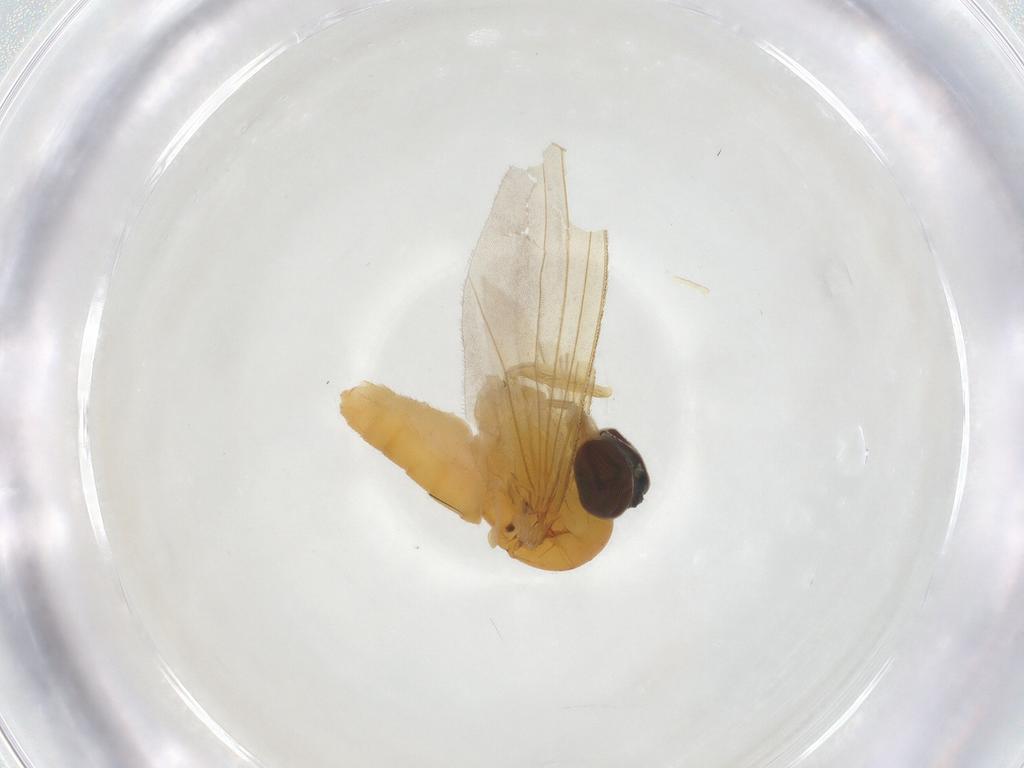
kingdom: Animalia
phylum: Arthropoda
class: Insecta
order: Diptera
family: Dolichopodidae
